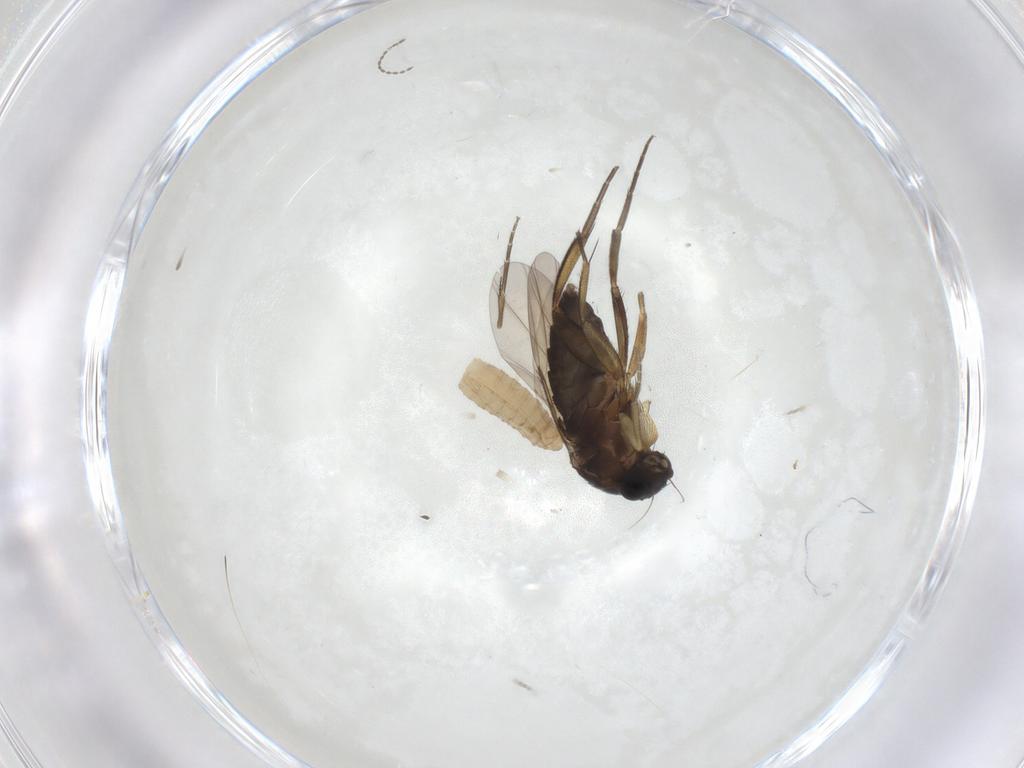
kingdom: Animalia
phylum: Arthropoda
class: Insecta
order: Diptera
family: Phoridae
